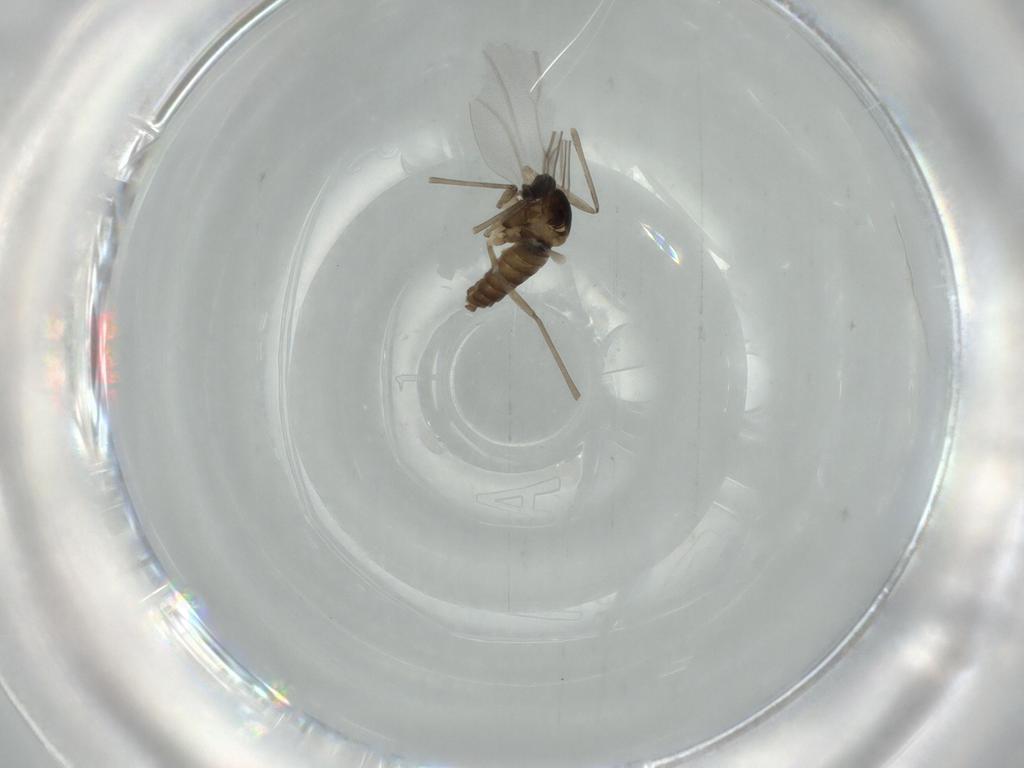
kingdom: Animalia
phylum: Arthropoda
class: Insecta
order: Diptera
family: Cecidomyiidae
